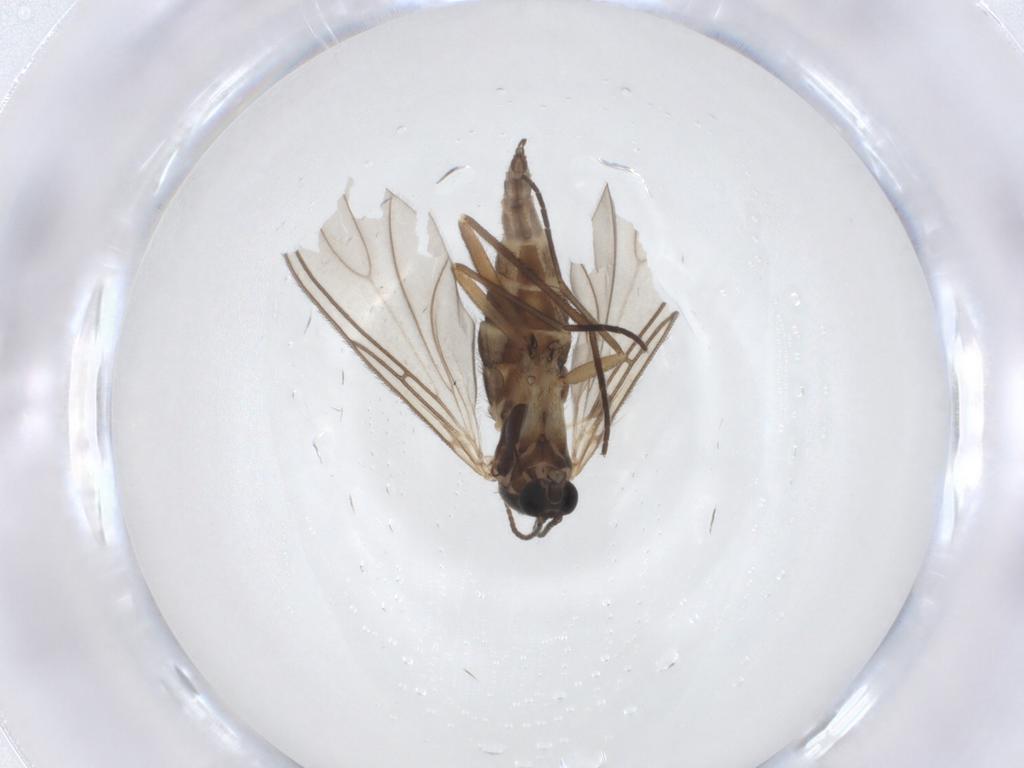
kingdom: Animalia
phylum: Arthropoda
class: Insecta
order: Diptera
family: Sciaridae
